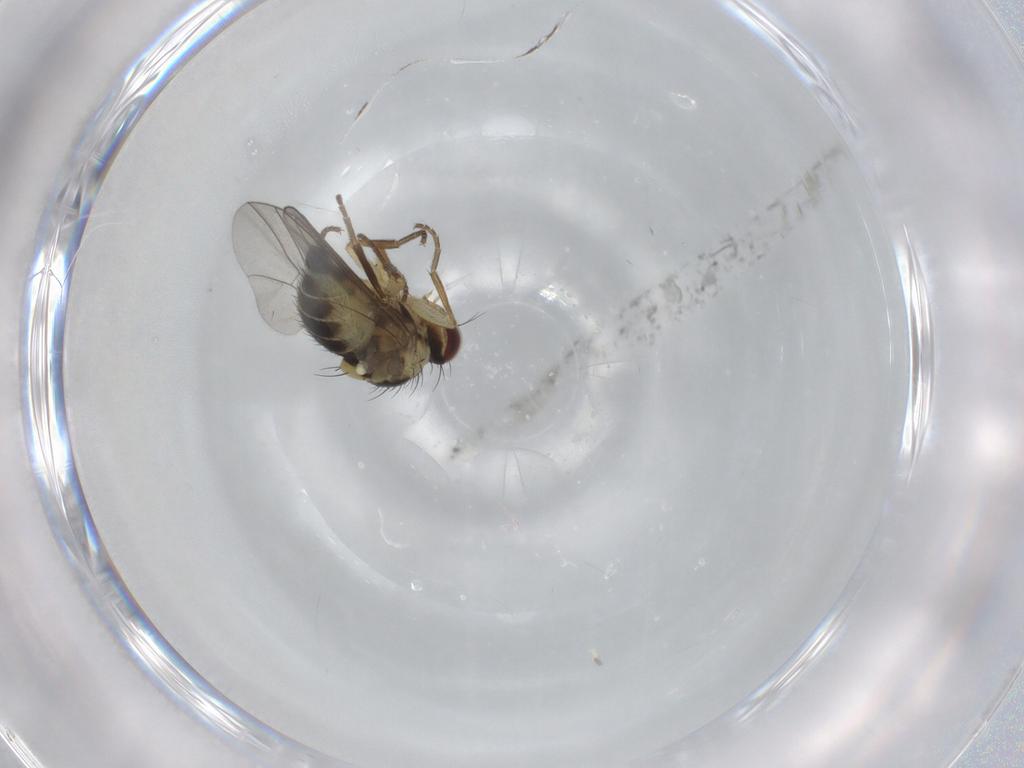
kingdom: Animalia
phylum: Arthropoda
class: Insecta
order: Diptera
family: Agromyzidae
